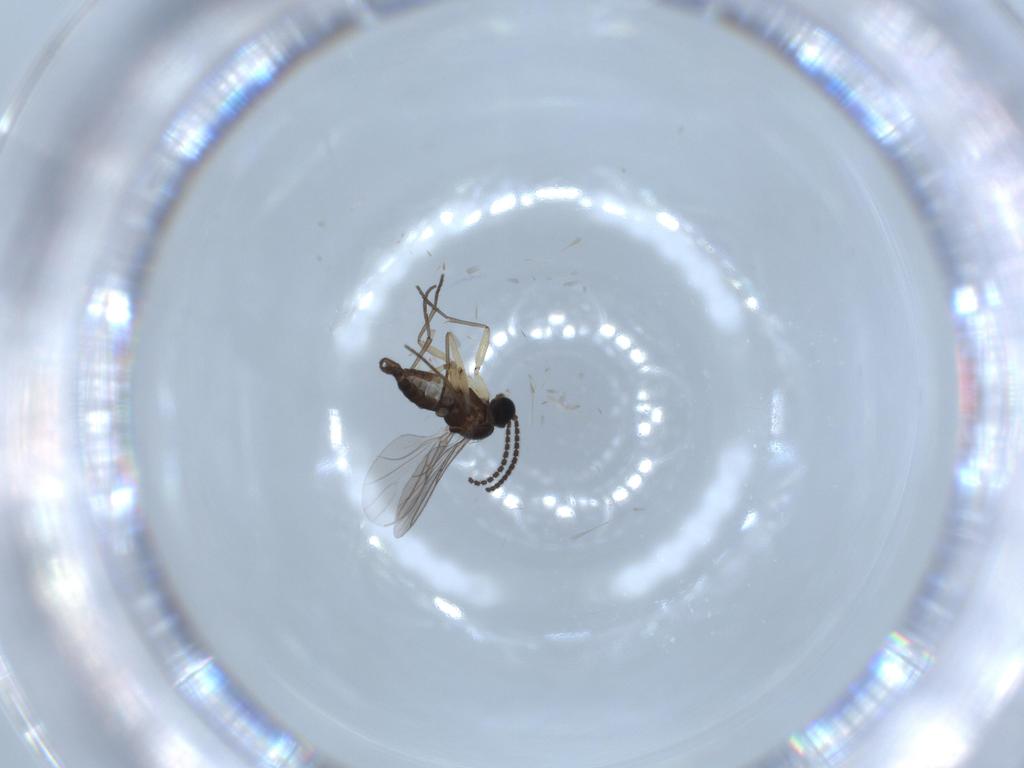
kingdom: Animalia
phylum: Arthropoda
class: Insecta
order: Diptera
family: Sciaridae
